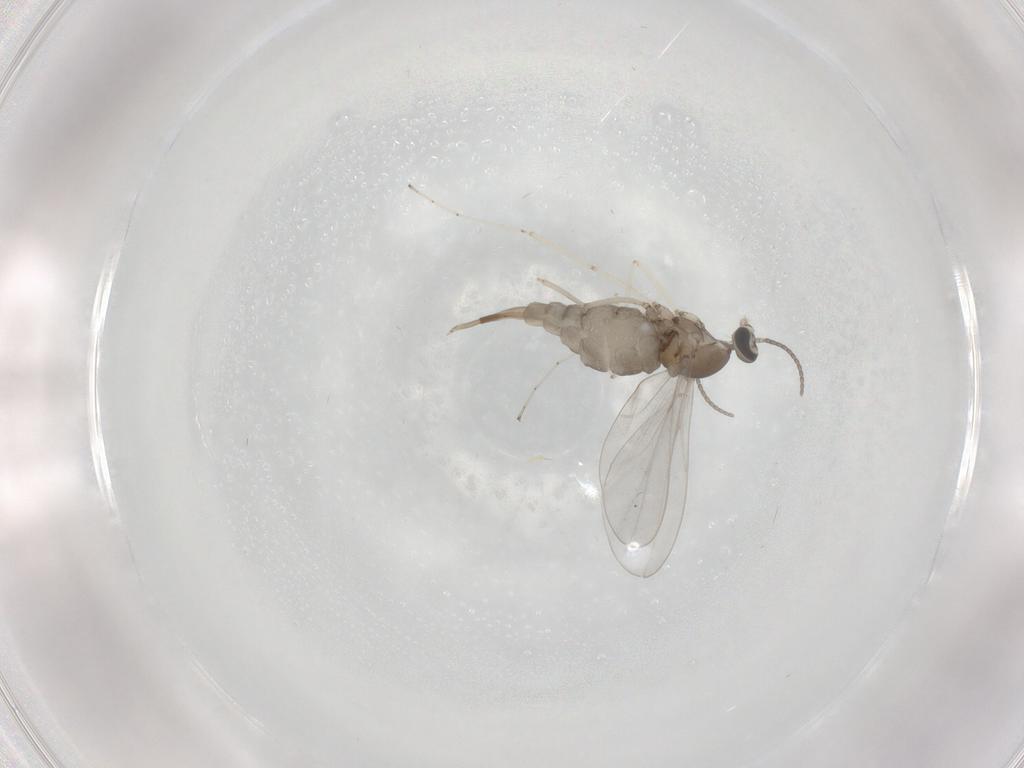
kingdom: Animalia
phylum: Arthropoda
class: Insecta
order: Diptera
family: Cecidomyiidae
